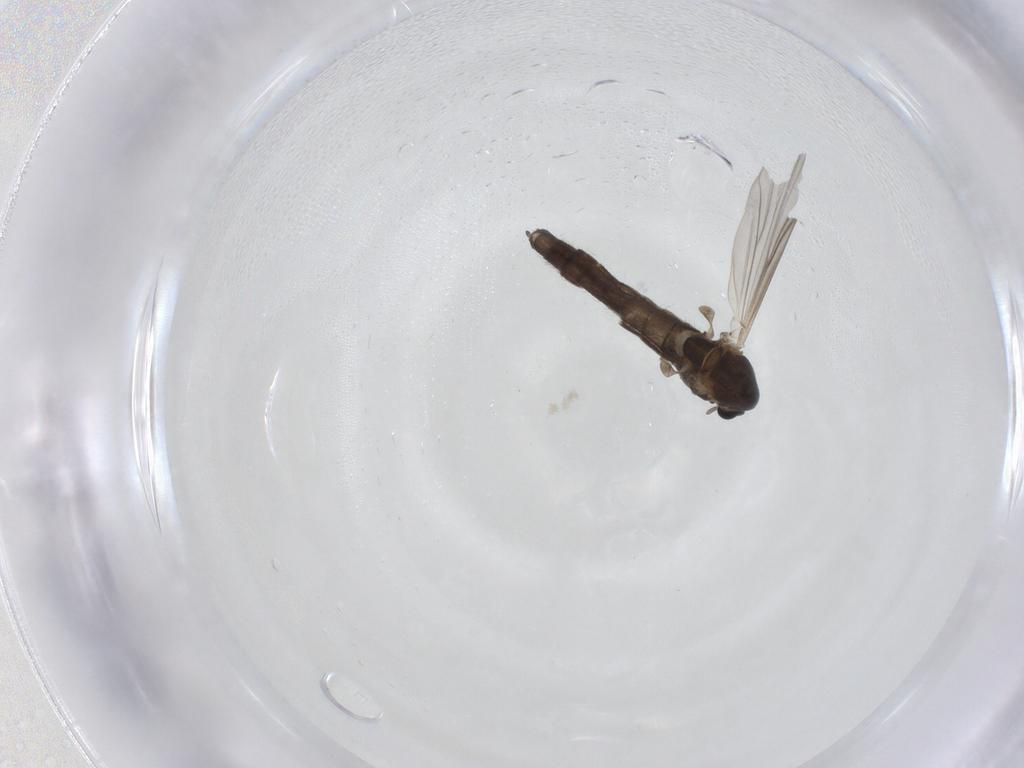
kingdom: Animalia
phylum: Arthropoda
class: Insecta
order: Diptera
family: Chironomidae
